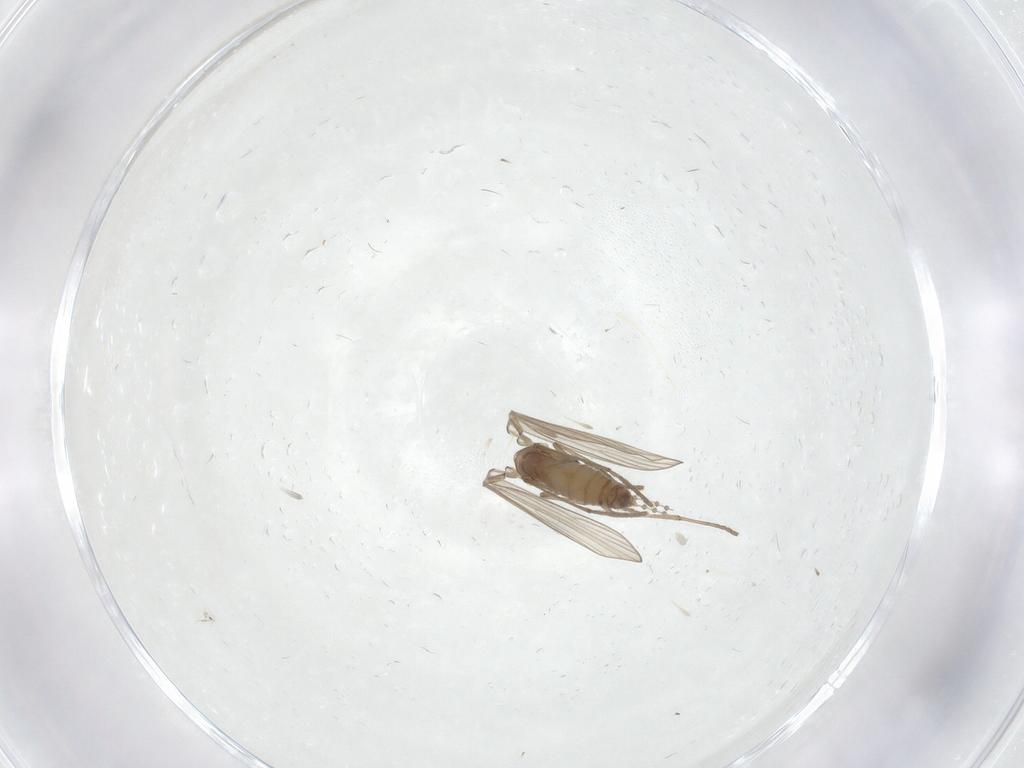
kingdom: Animalia
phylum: Arthropoda
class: Insecta
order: Diptera
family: Psychodidae
